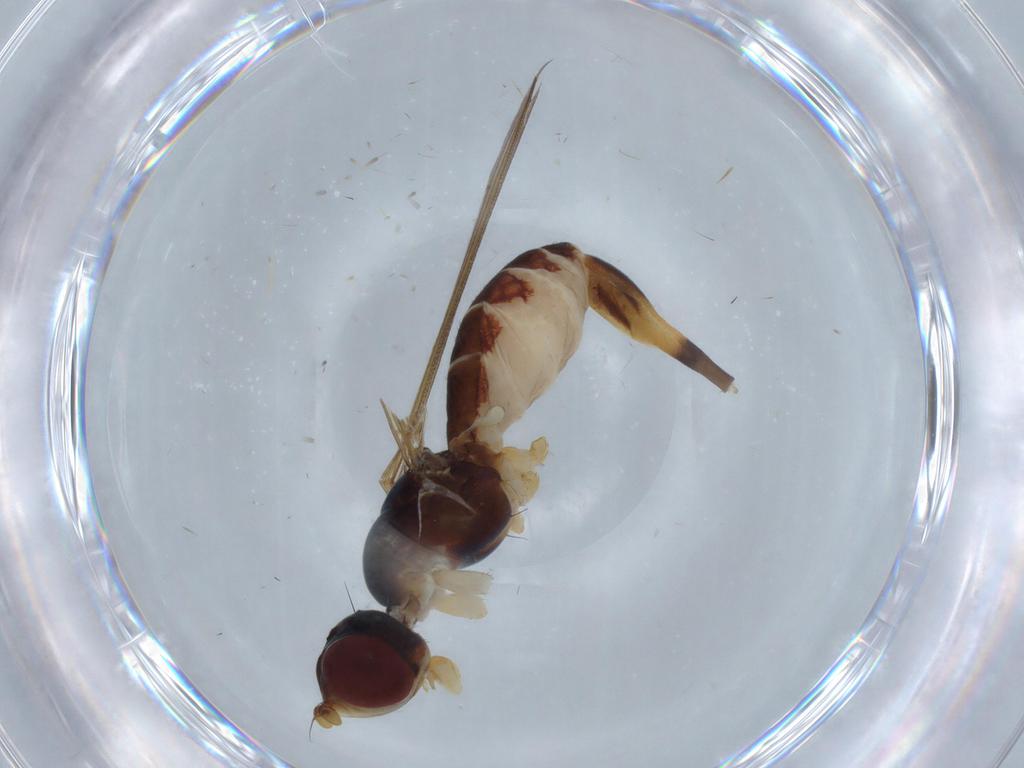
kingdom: Animalia
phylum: Arthropoda
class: Insecta
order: Diptera
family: Micropezidae
